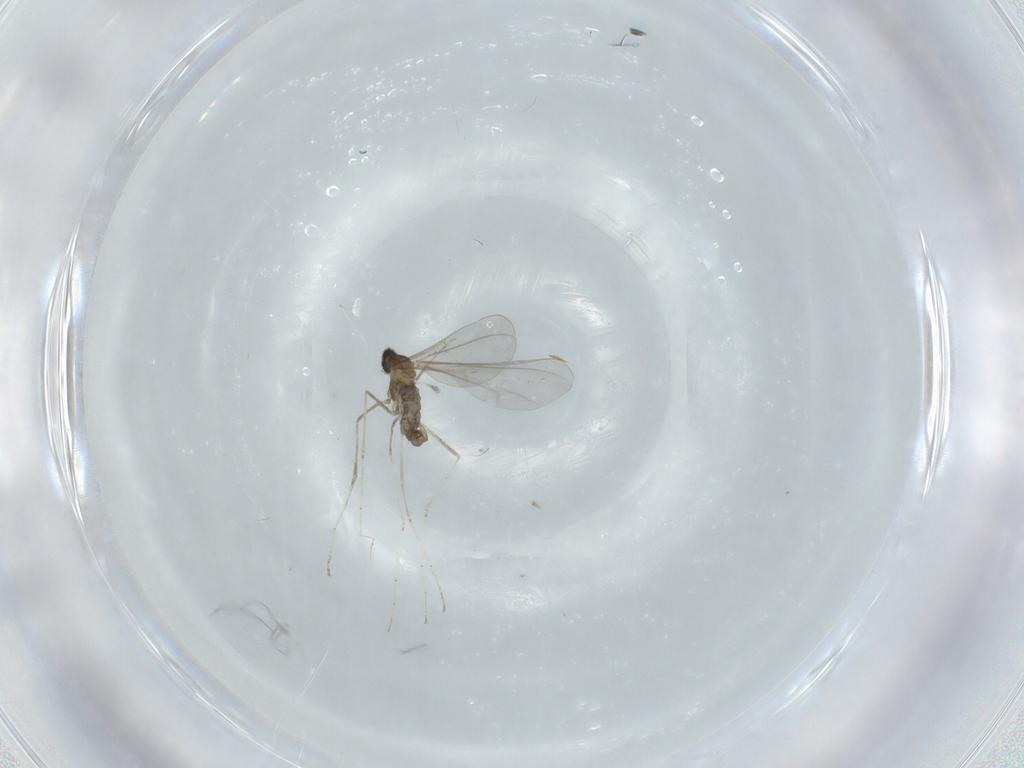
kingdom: Animalia
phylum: Arthropoda
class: Insecta
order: Diptera
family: Cecidomyiidae
